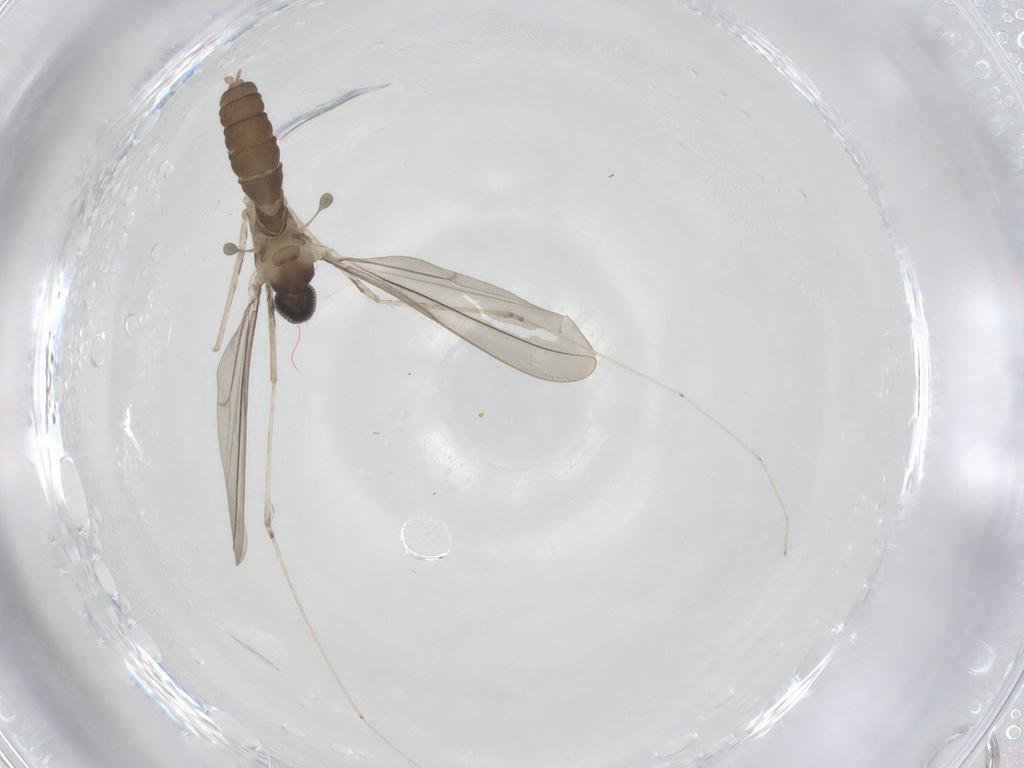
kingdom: Animalia
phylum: Arthropoda
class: Insecta
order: Diptera
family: Cecidomyiidae
